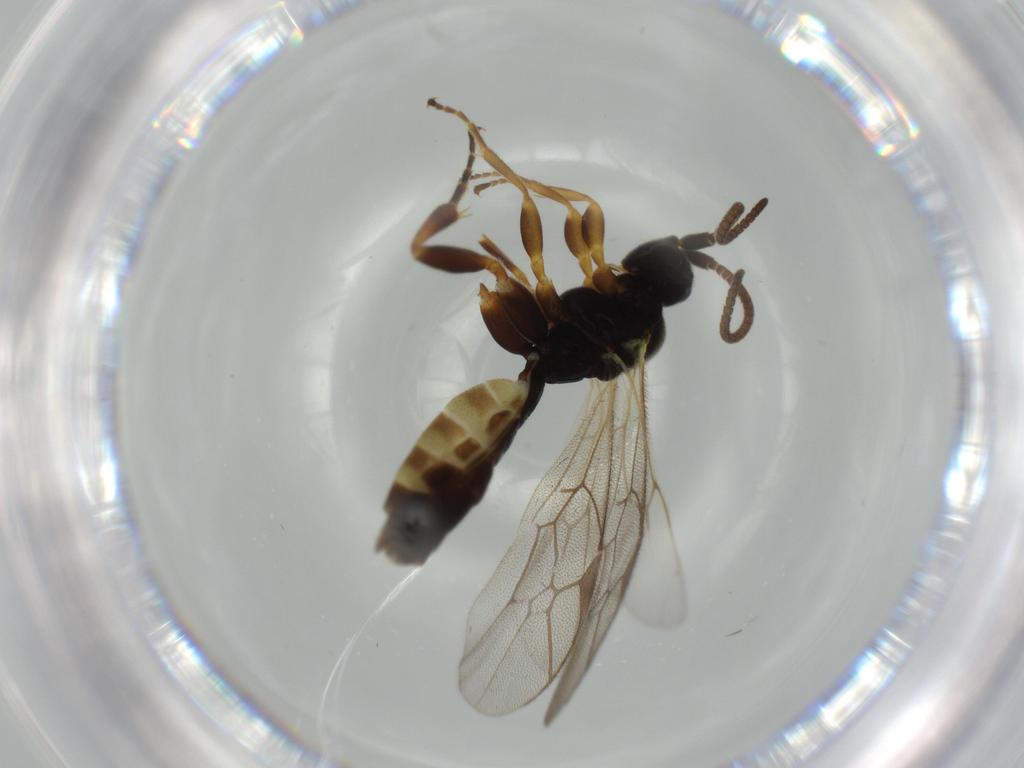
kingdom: Animalia
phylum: Arthropoda
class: Insecta
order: Hymenoptera
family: Ichneumonidae
